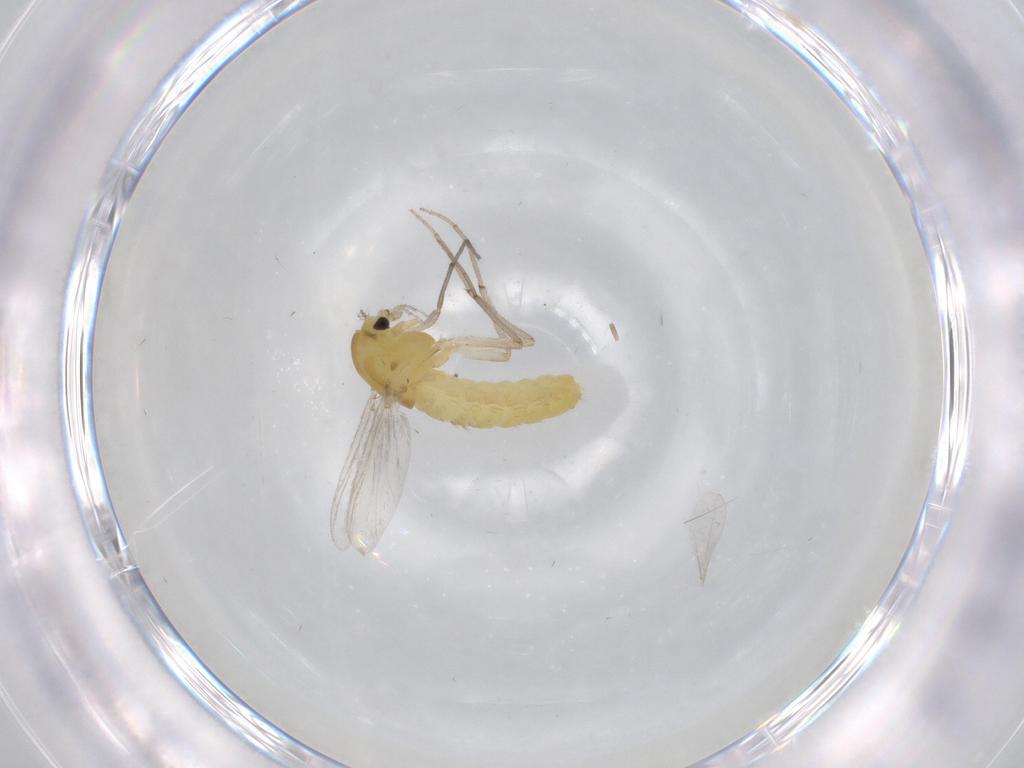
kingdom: Animalia
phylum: Arthropoda
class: Insecta
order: Diptera
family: Chironomidae
